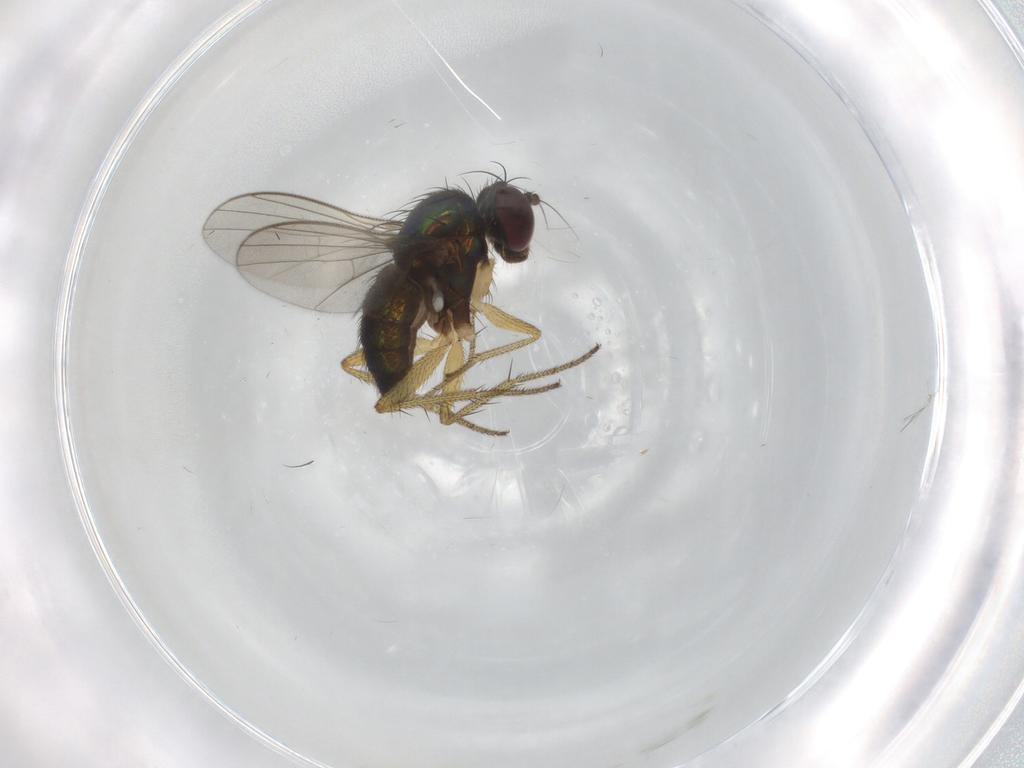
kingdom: Animalia
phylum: Arthropoda
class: Insecta
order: Diptera
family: Dolichopodidae
